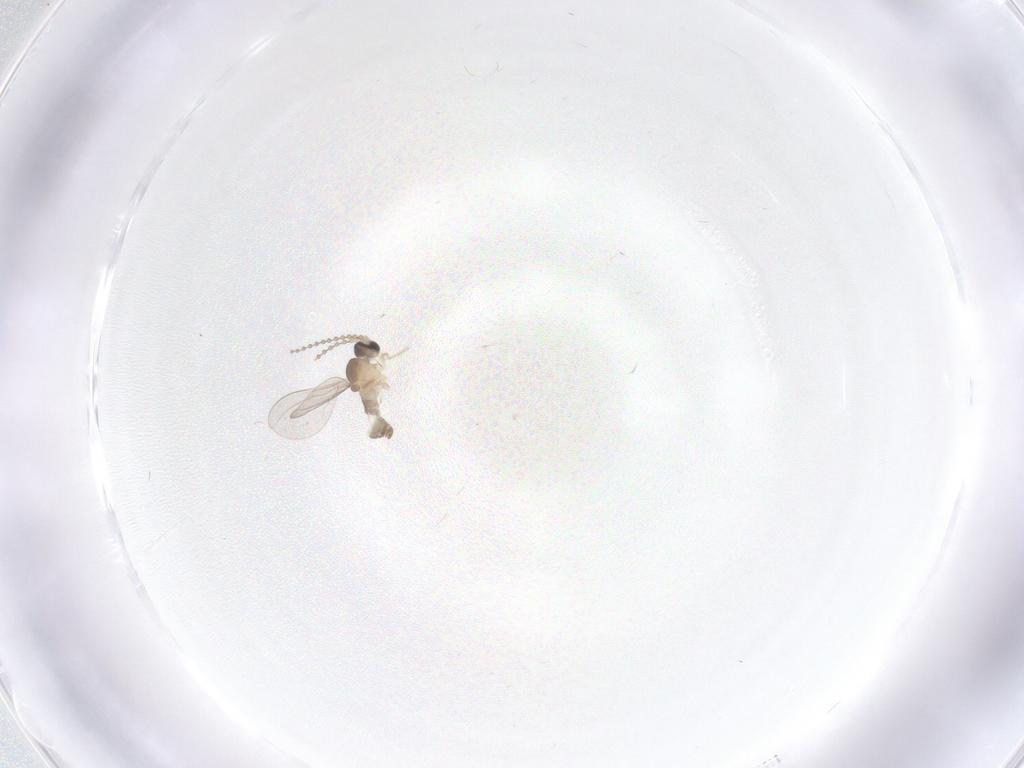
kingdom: Animalia
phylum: Arthropoda
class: Insecta
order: Diptera
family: Cecidomyiidae
